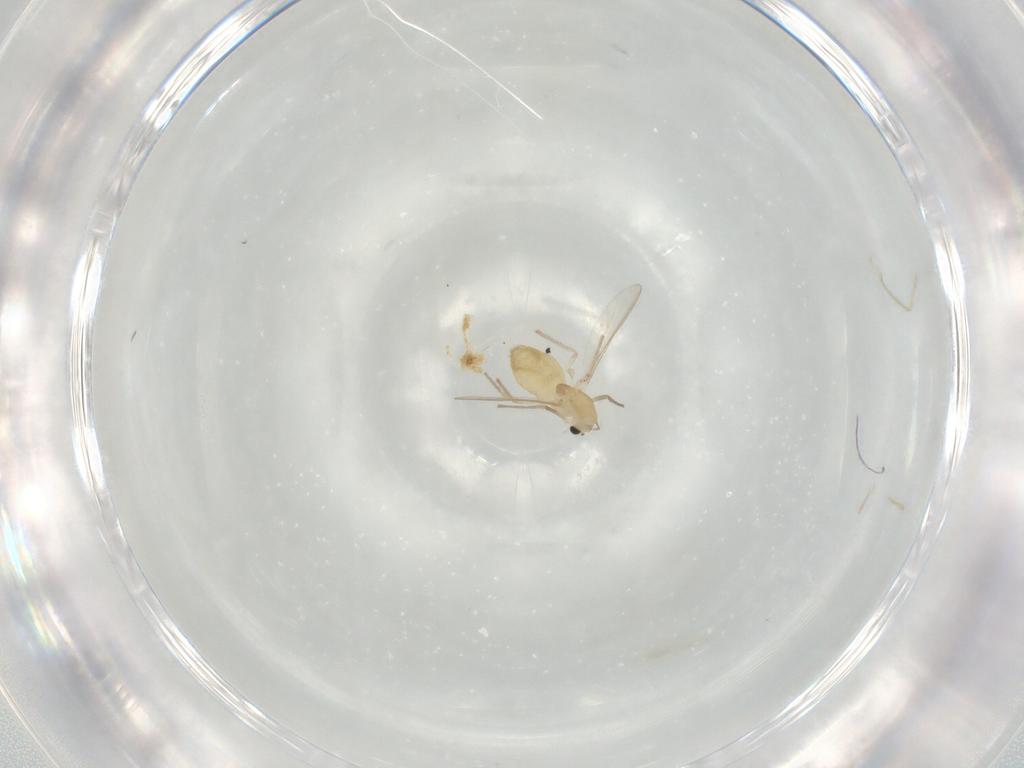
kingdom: Animalia
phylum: Arthropoda
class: Insecta
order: Diptera
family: Chironomidae
